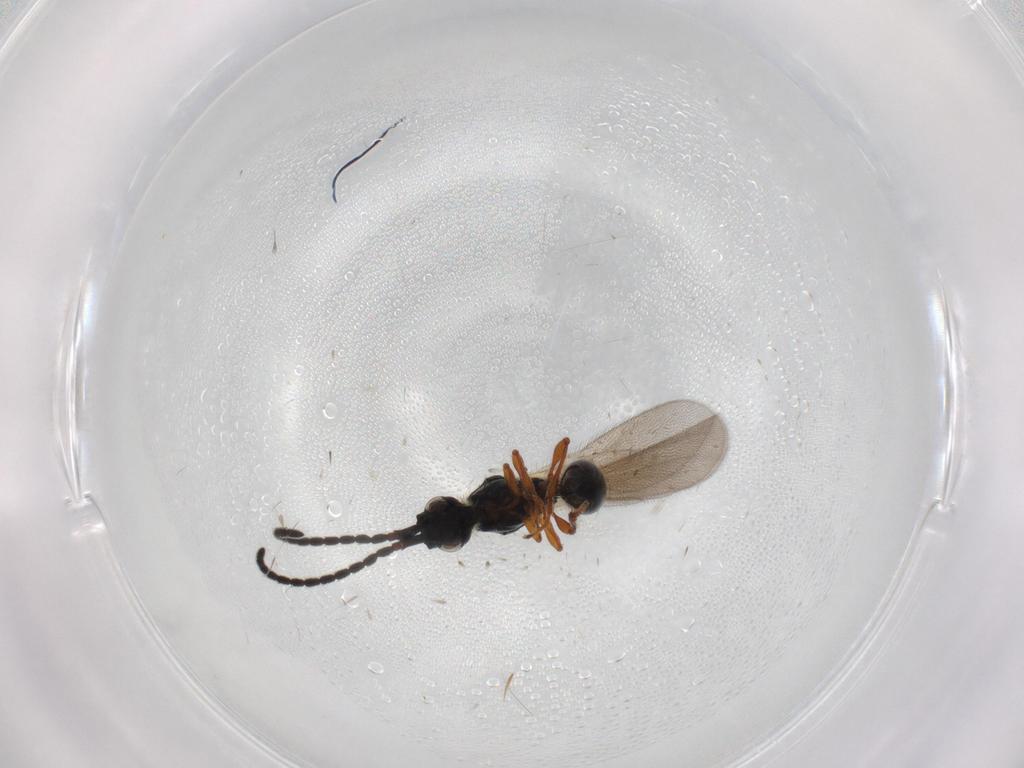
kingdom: Animalia
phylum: Arthropoda
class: Insecta
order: Hymenoptera
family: Diapriidae
